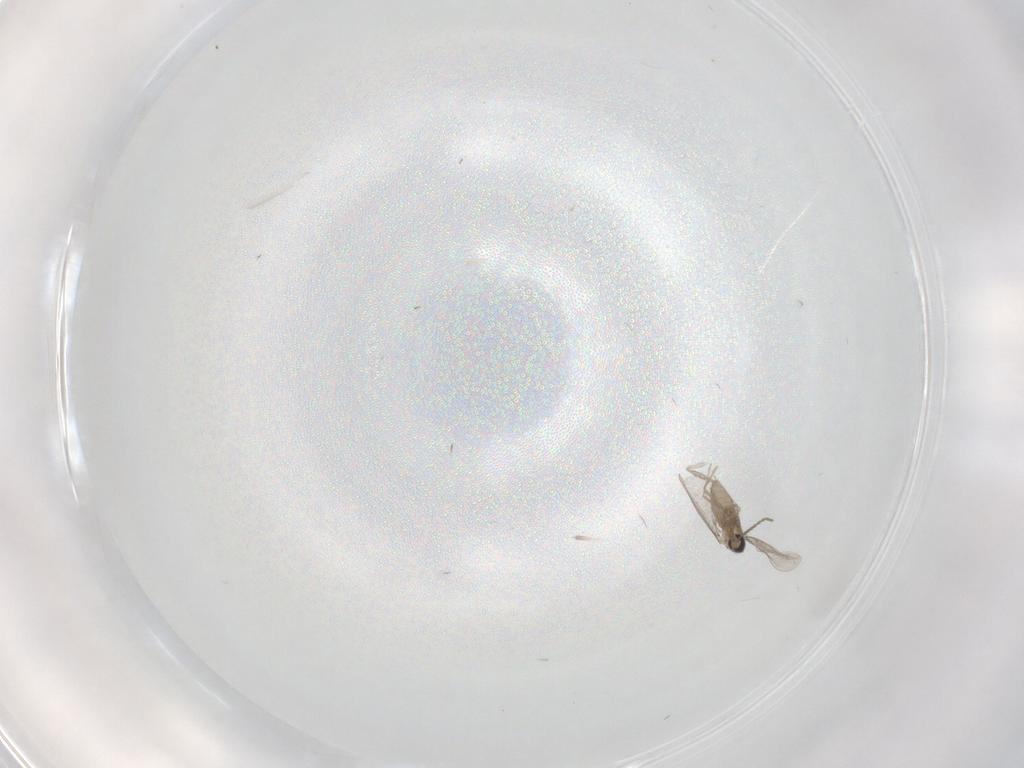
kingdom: Animalia
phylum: Arthropoda
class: Insecta
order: Diptera
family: Cecidomyiidae
